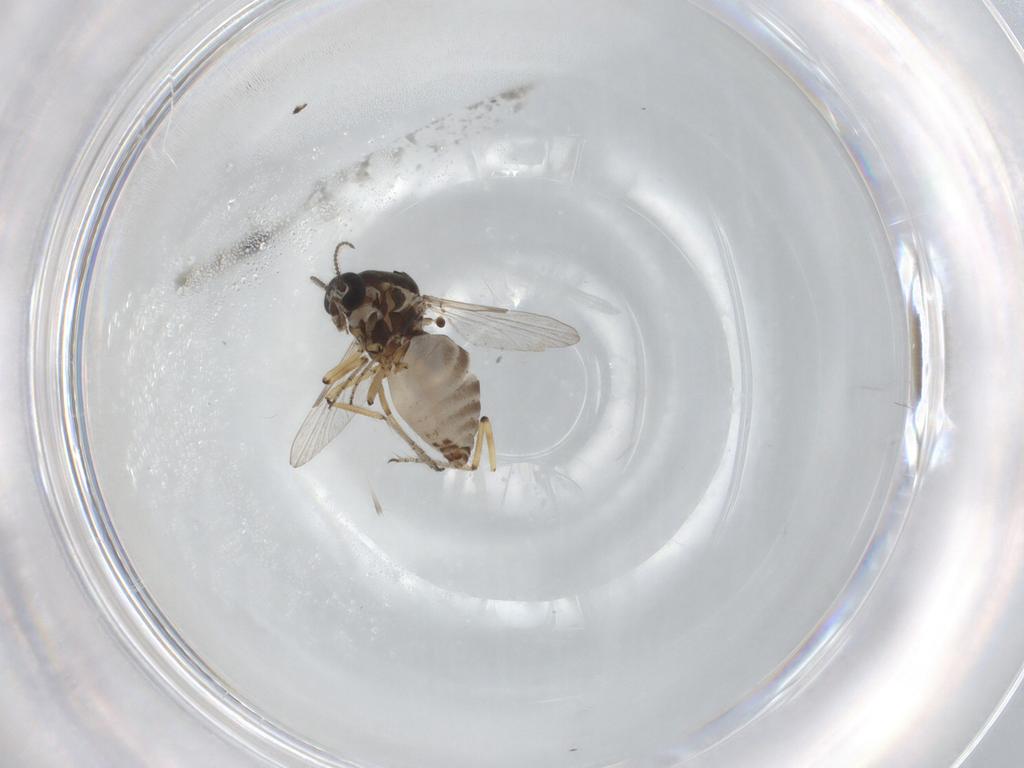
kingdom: Animalia
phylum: Arthropoda
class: Insecta
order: Diptera
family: Ceratopogonidae
